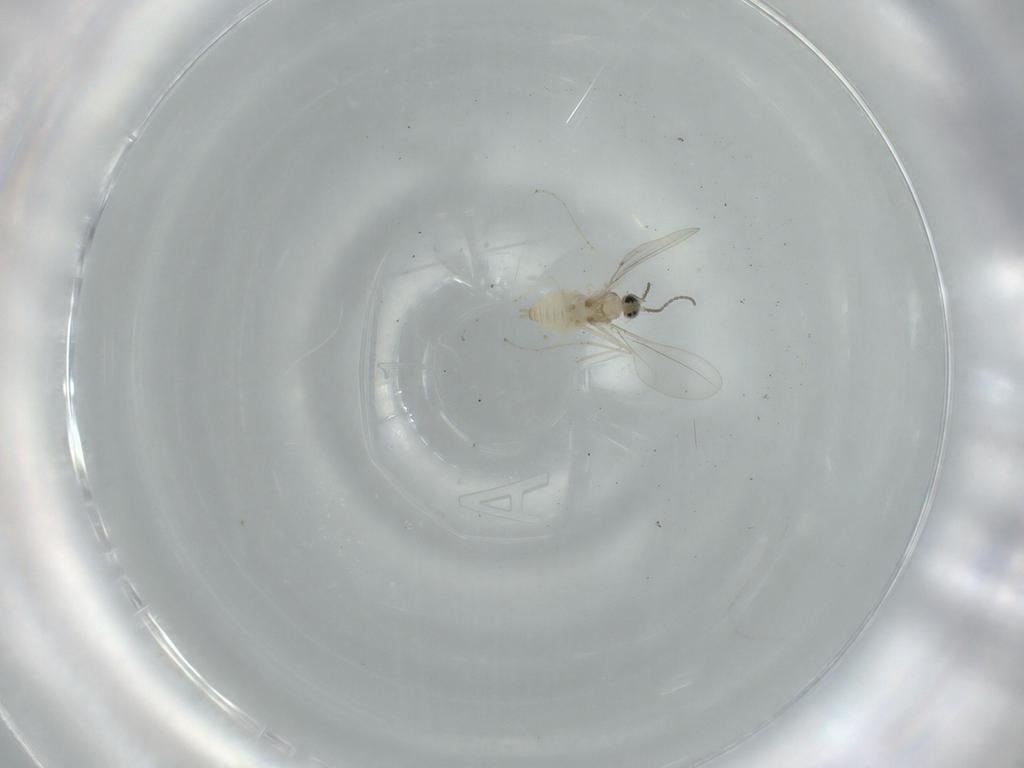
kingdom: Animalia
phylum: Arthropoda
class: Insecta
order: Diptera
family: Chironomidae
